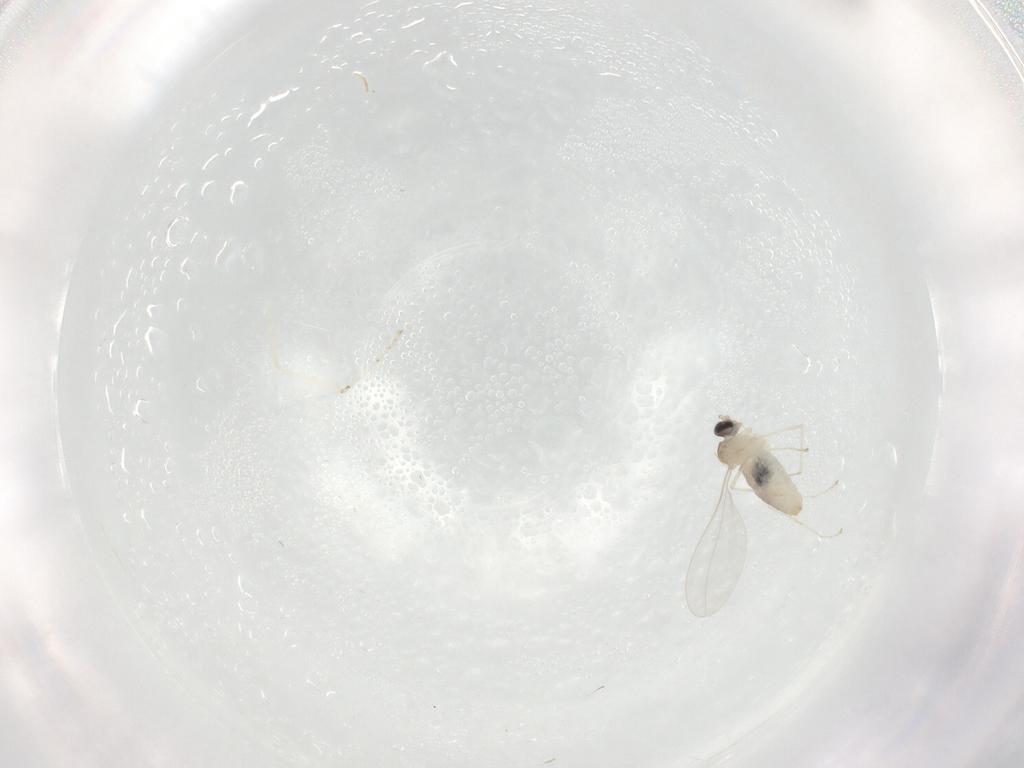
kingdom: Animalia
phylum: Arthropoda
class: Insecta
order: Diptera
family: Cecidomyiidae
